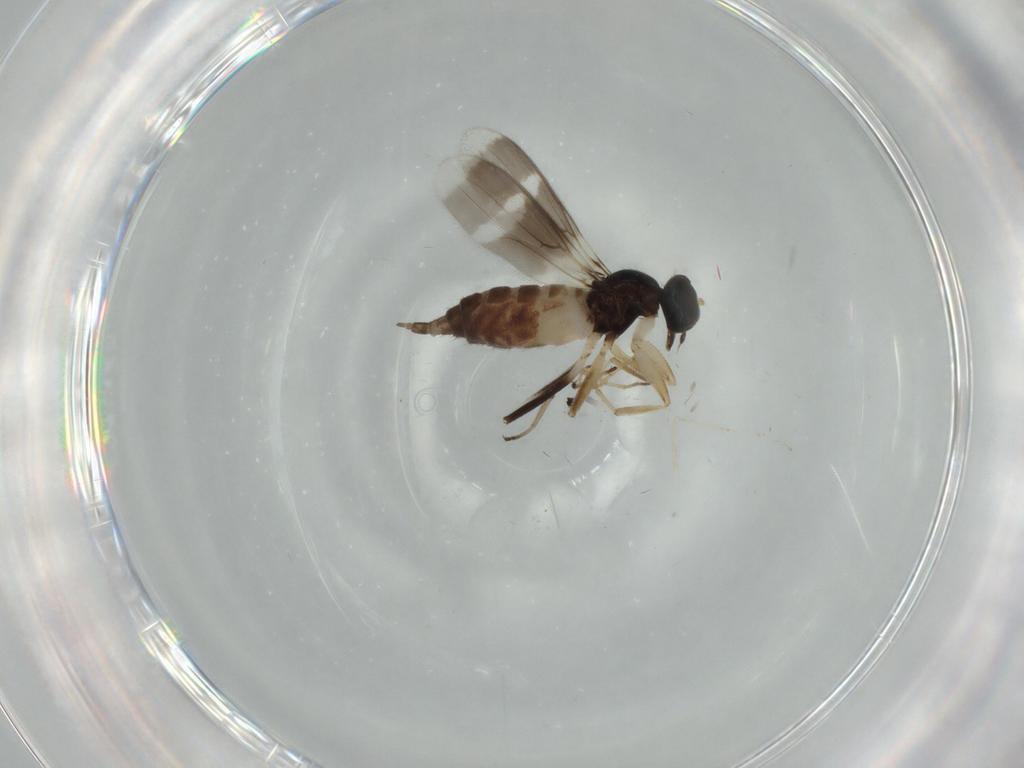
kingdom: Animalia
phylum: Arthropoda
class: Insecta
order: Diptera
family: Hybotidae
